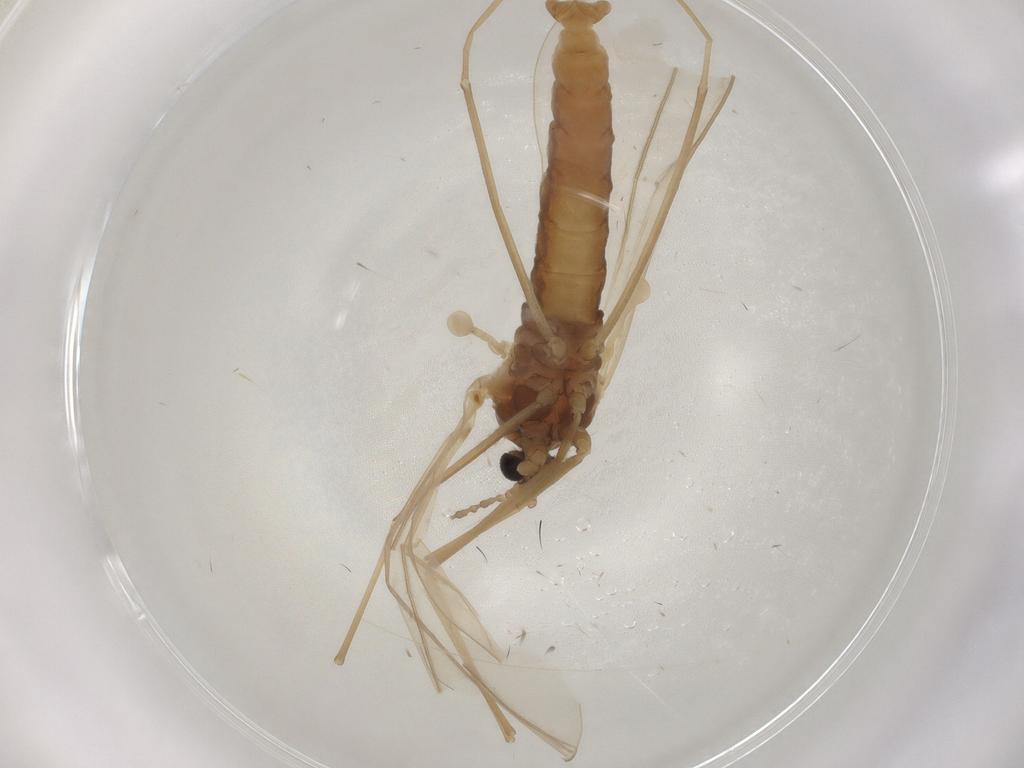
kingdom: Animalia
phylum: Arthropoda
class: Insecta
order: Diptera
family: Cecidomyiidae
